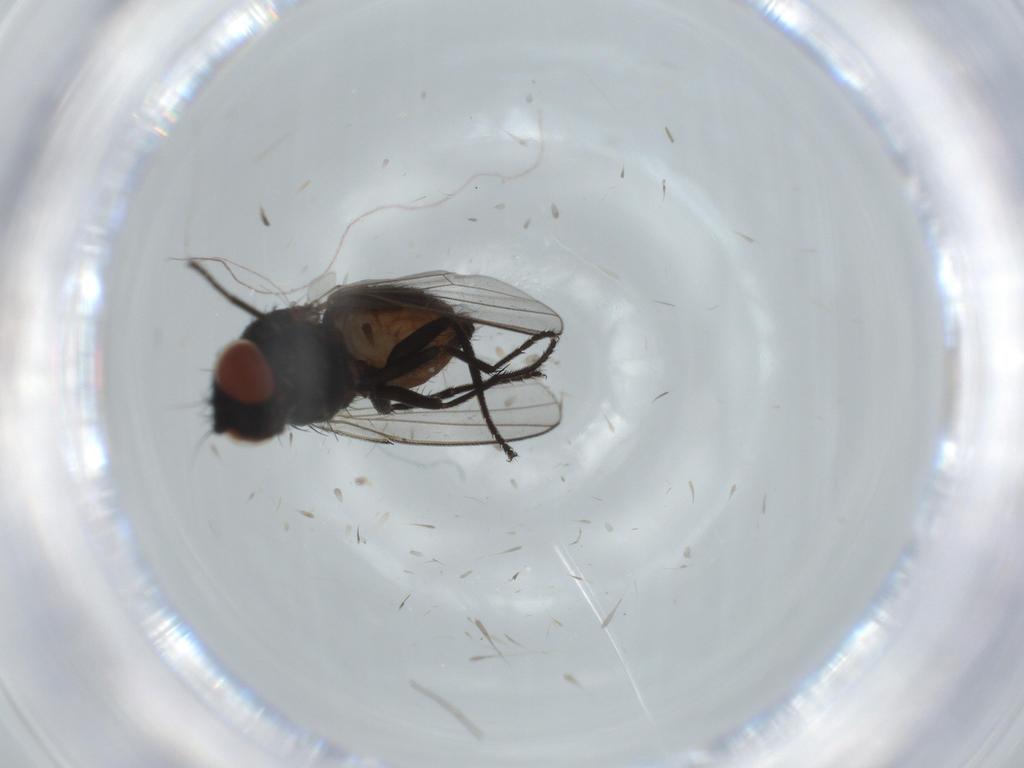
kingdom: Animalia
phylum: Arthropoda
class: Insecta
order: Diptera
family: Milichiidae
